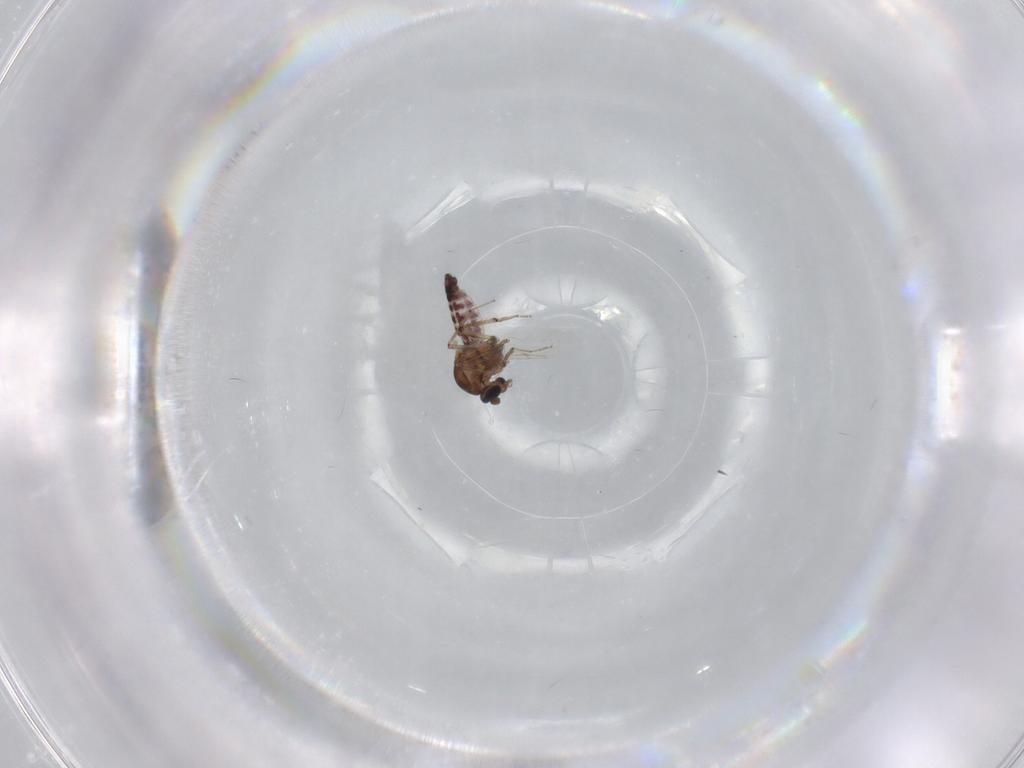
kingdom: Animalia
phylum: Arthropoda
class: Insecta
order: Diptera
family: Ceratopogonidae
